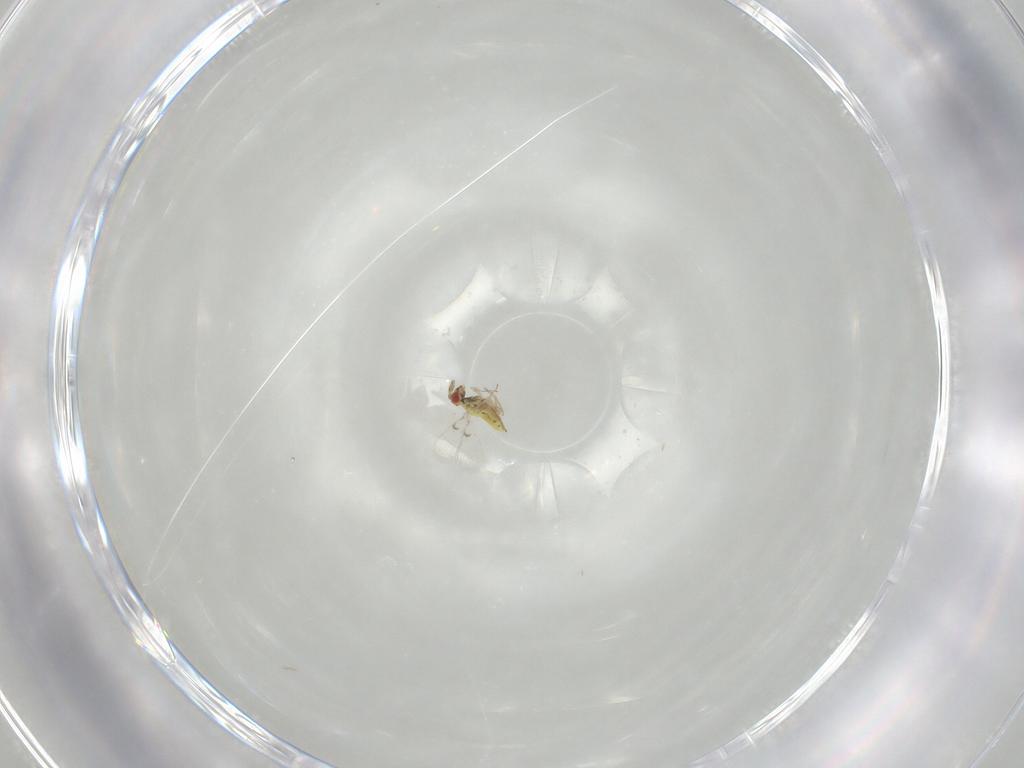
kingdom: Animalia
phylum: Arthropoda
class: Insecta
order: Hymenoptera
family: Trichogrammatidae
